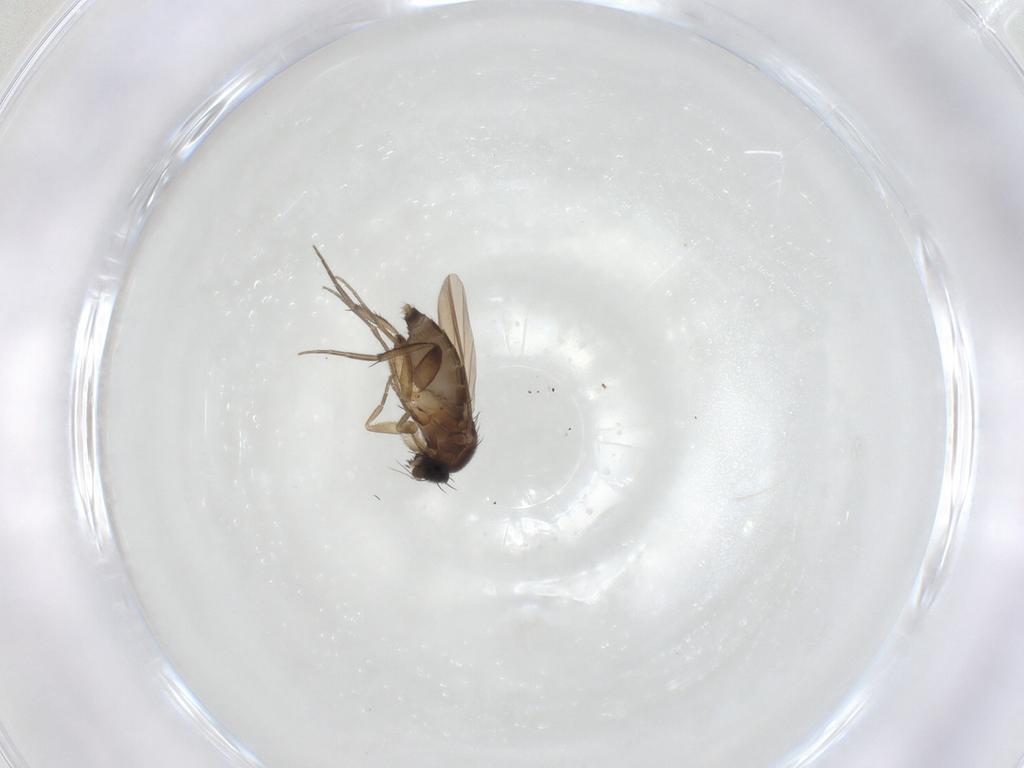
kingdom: Animalia
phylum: Arthropoda
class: Insecta
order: Diptera
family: Phoridae
